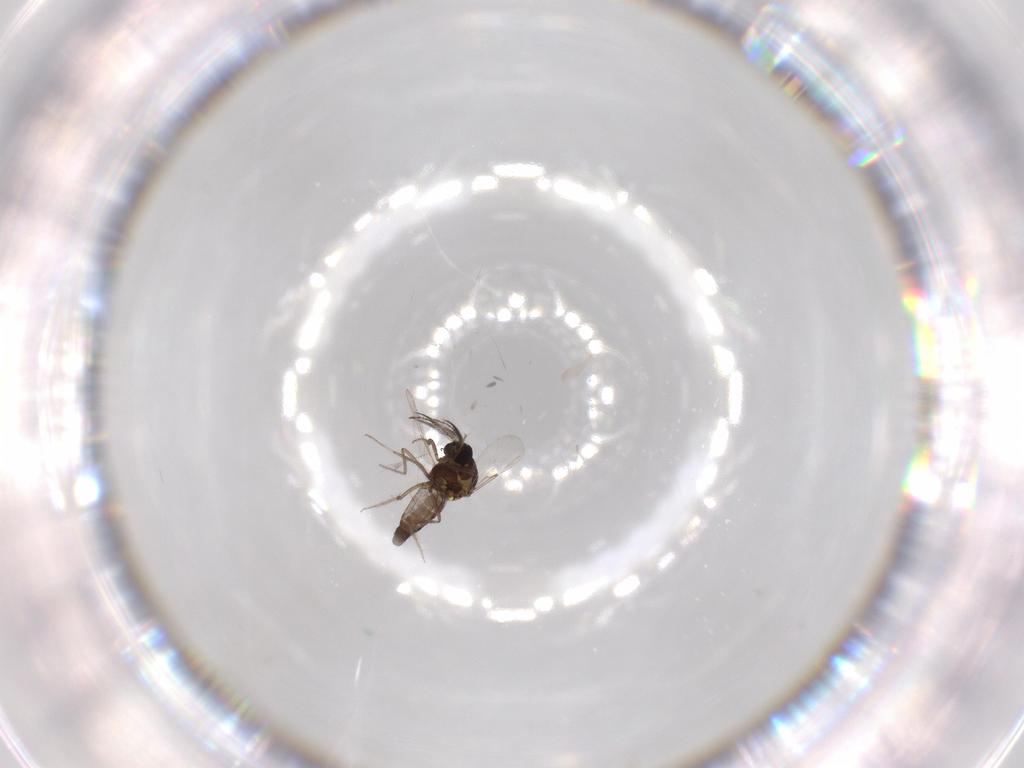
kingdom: Animalia
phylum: Arthropoda
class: Insecta
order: Diptera
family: Ceratopogonidae
